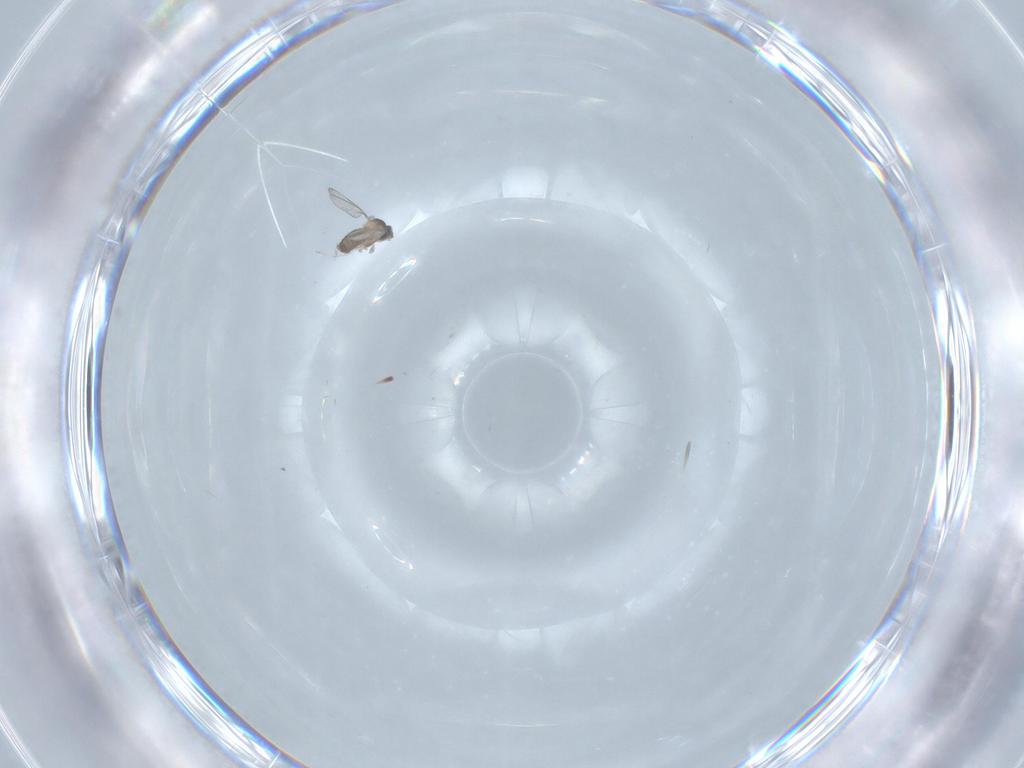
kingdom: Animalia
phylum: Arthropoda
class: Insecta
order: Diptera
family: Cecidomyiidae
